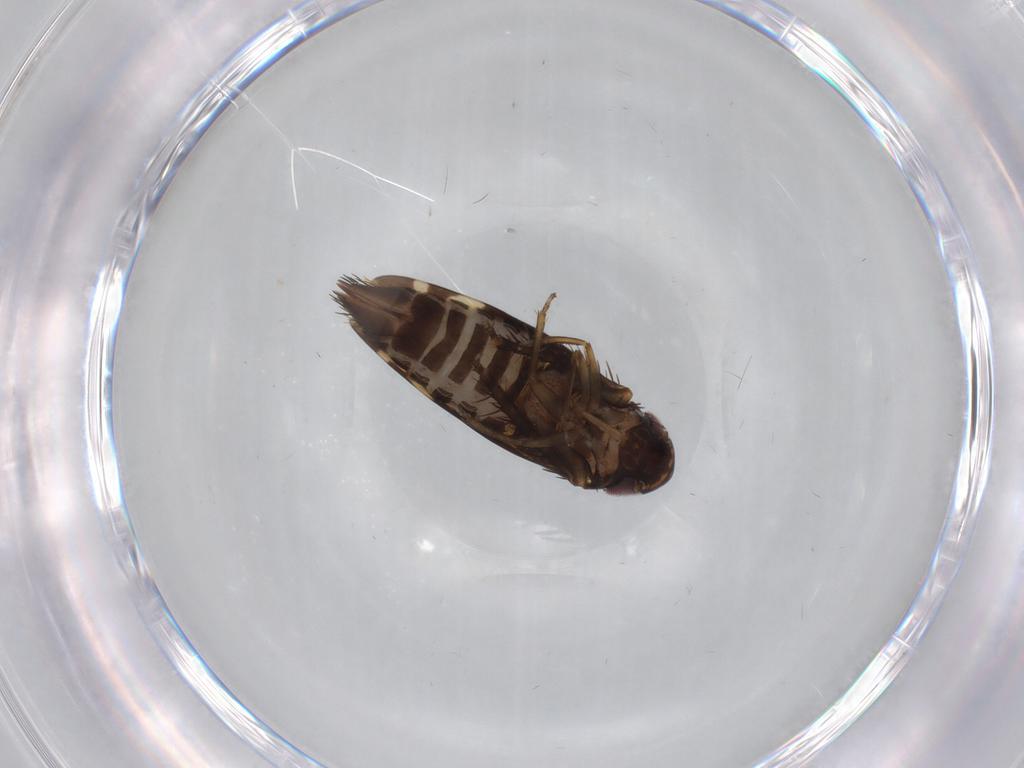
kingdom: Animalia
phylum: Arthropoda
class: Insecta
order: Hemiptera
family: Cicadellidae
